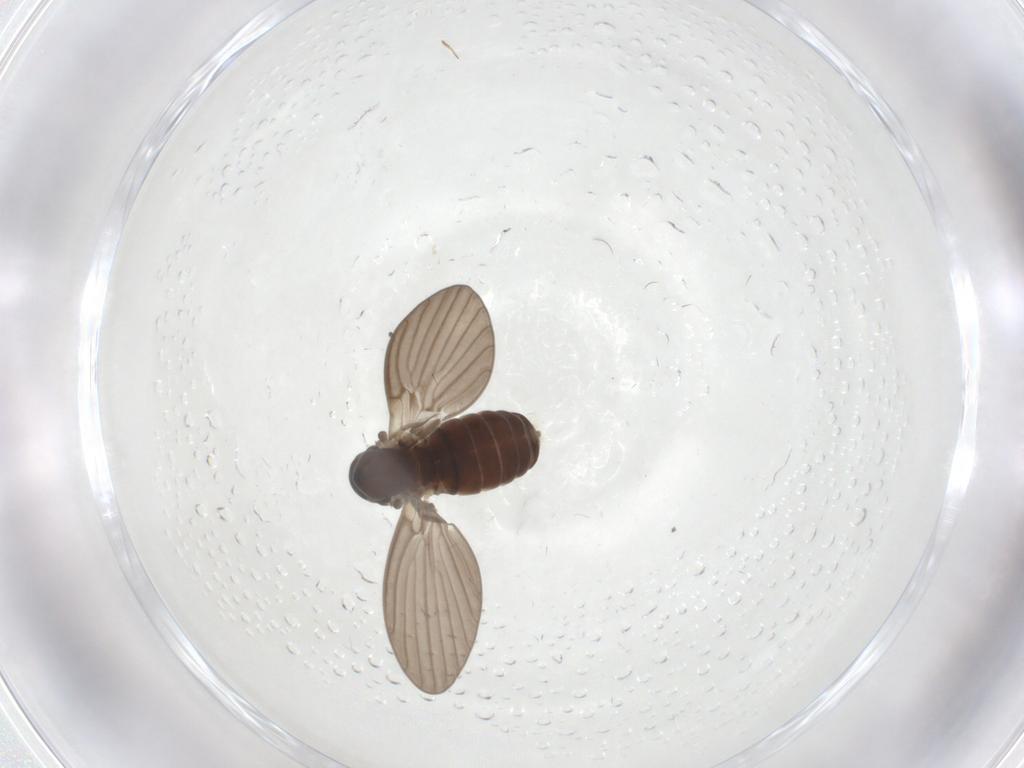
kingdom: Animalia
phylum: Arthropoda
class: Insecta
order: Diptera
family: Psychodidae
